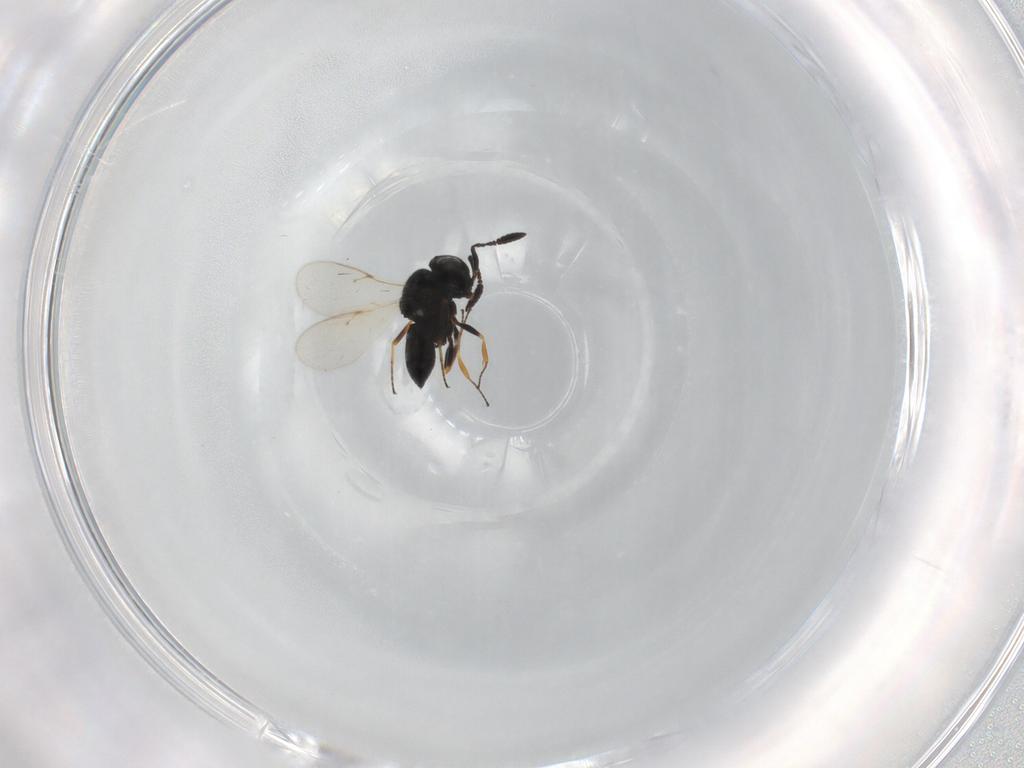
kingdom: Animalia
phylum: Arthropoda
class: Insecta
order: Hymenoptera
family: Scelionidae
